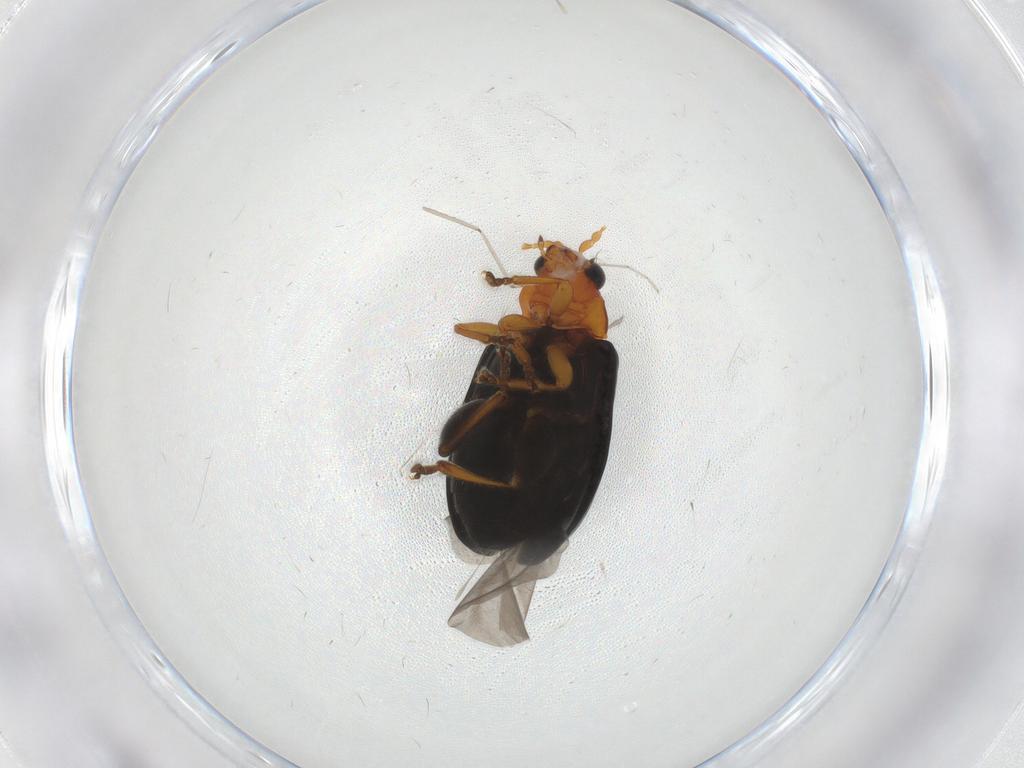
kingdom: Animalia
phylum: Arthropoda
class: Insecta
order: Coleoptera
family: Chrysomelidae
